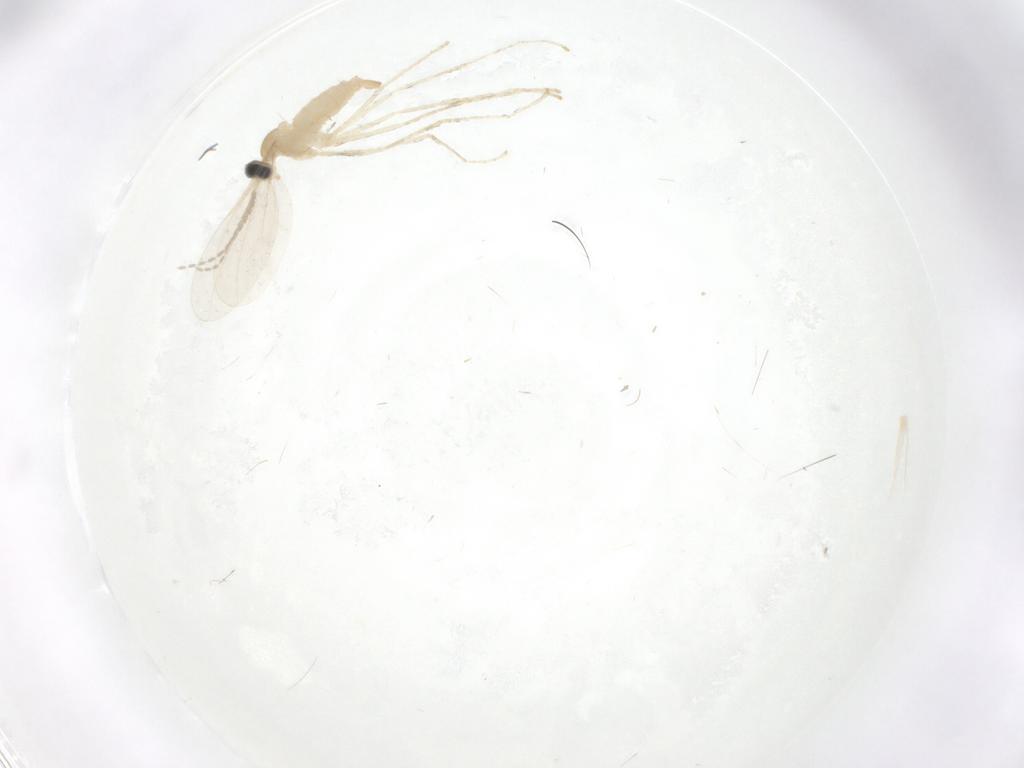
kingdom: Animalia
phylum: Arthropoda
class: Insecta
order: Diptera
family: Cecidomyiidae
